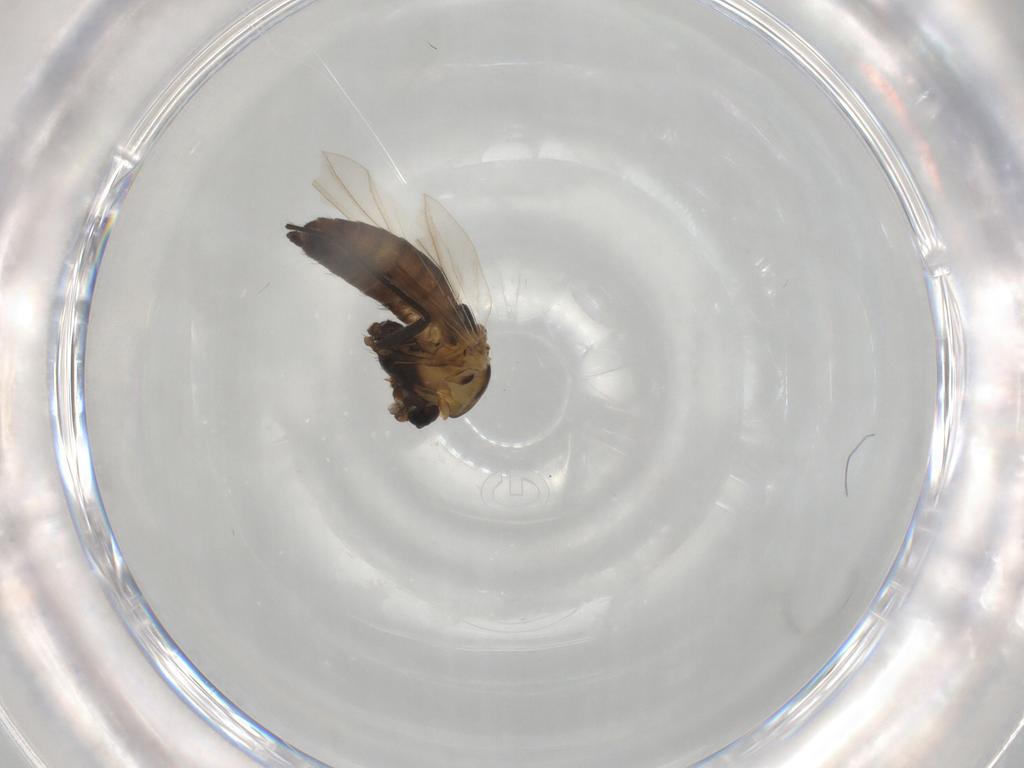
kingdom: Animalia
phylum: Arthropoda
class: Insecta
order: Diptera
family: Chironomidae
